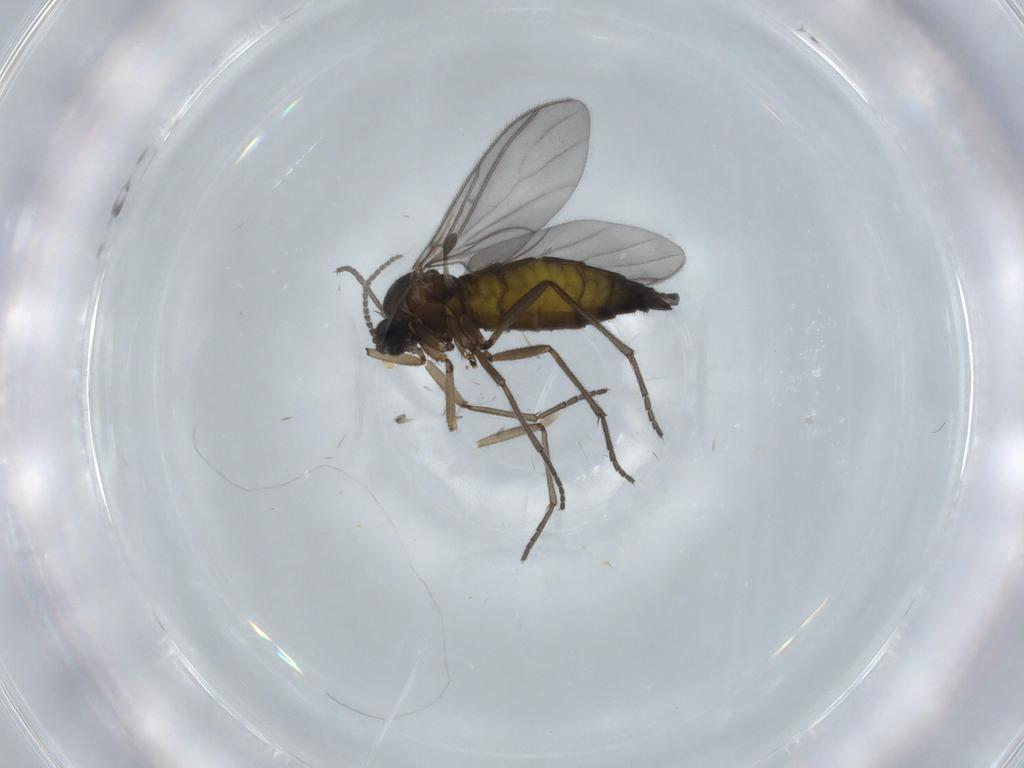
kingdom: Animalia
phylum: Arthropoda
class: Insecta
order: Diptera
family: Sciaridae
